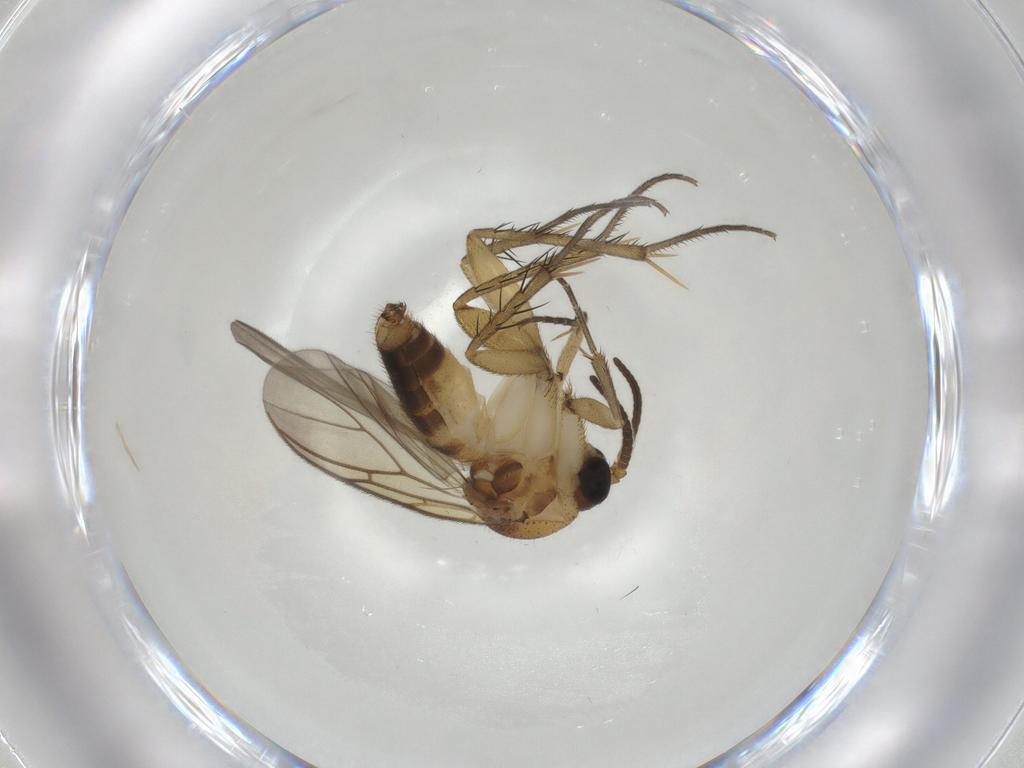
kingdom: Animalia
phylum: Arthropoda
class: Insecta
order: Diptera
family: Mycetophilidae
